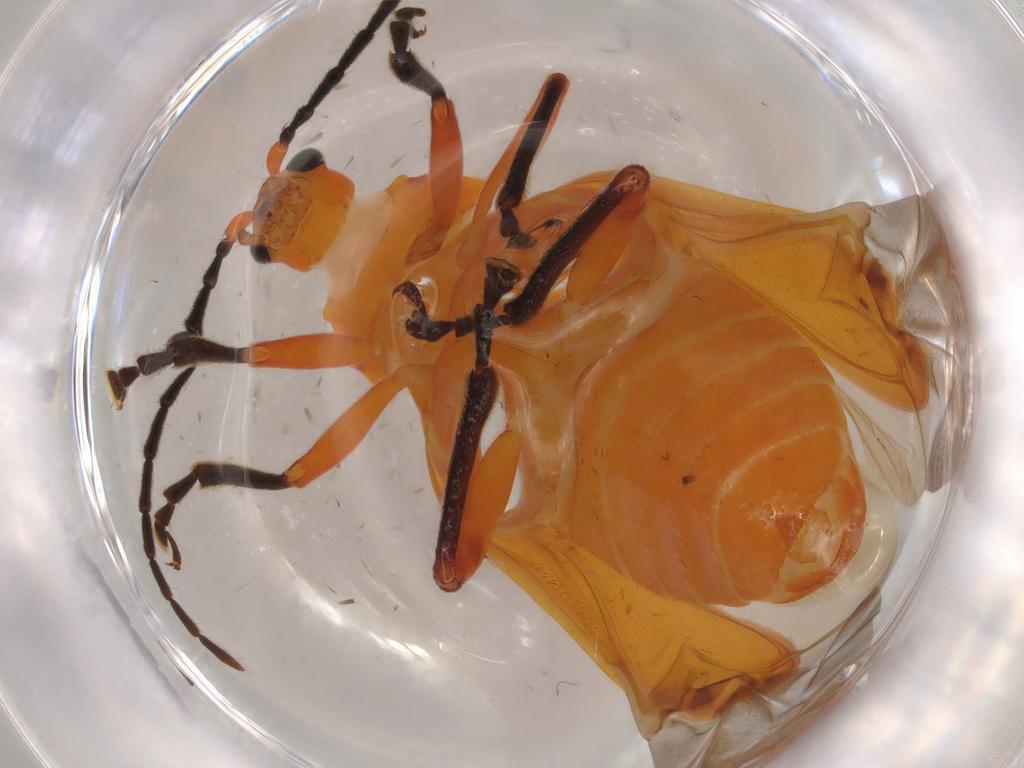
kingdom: Animalia
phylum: Arthropoda
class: Insecta
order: Coleoptera
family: Chrysomelidae
